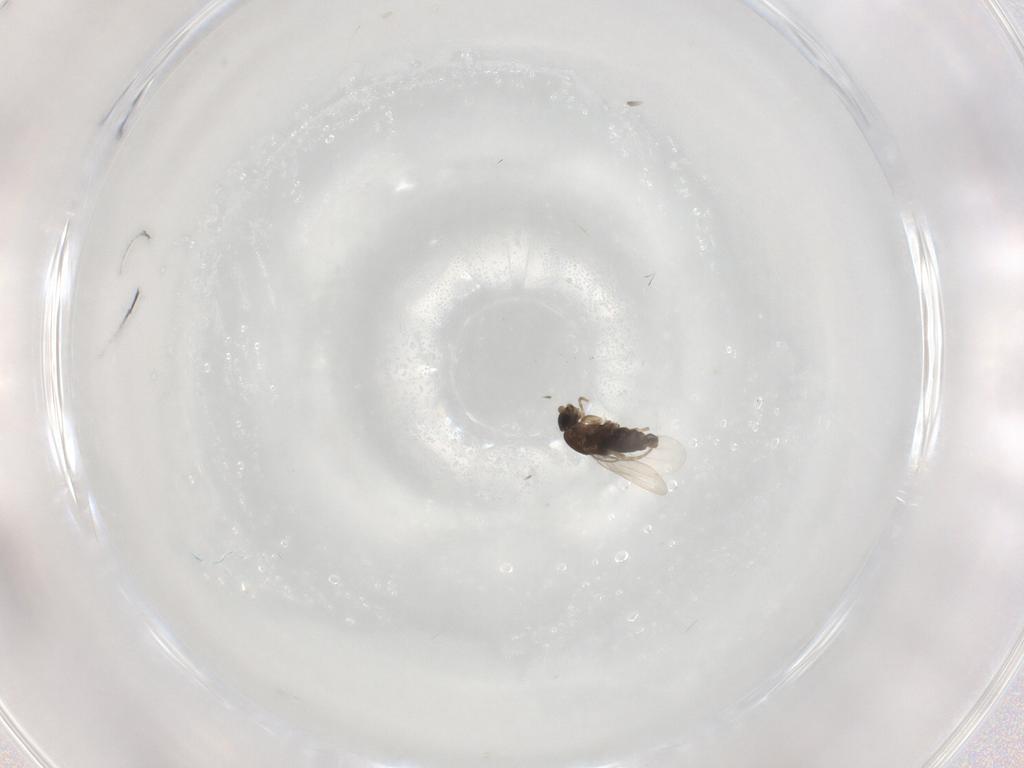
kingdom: Animalia
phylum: Arthropoda
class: Insecta
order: Diptera
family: Phoridae
